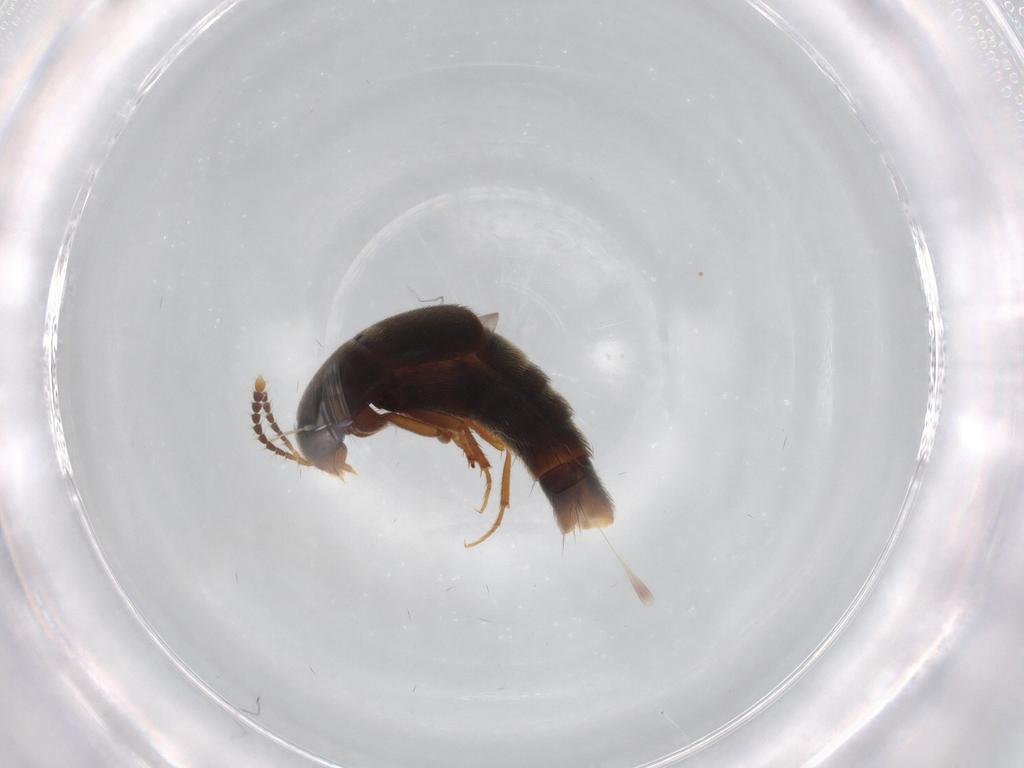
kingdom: Animalia
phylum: Arthropoda
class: Insecta
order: Coleoptera
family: Staphylinidae
